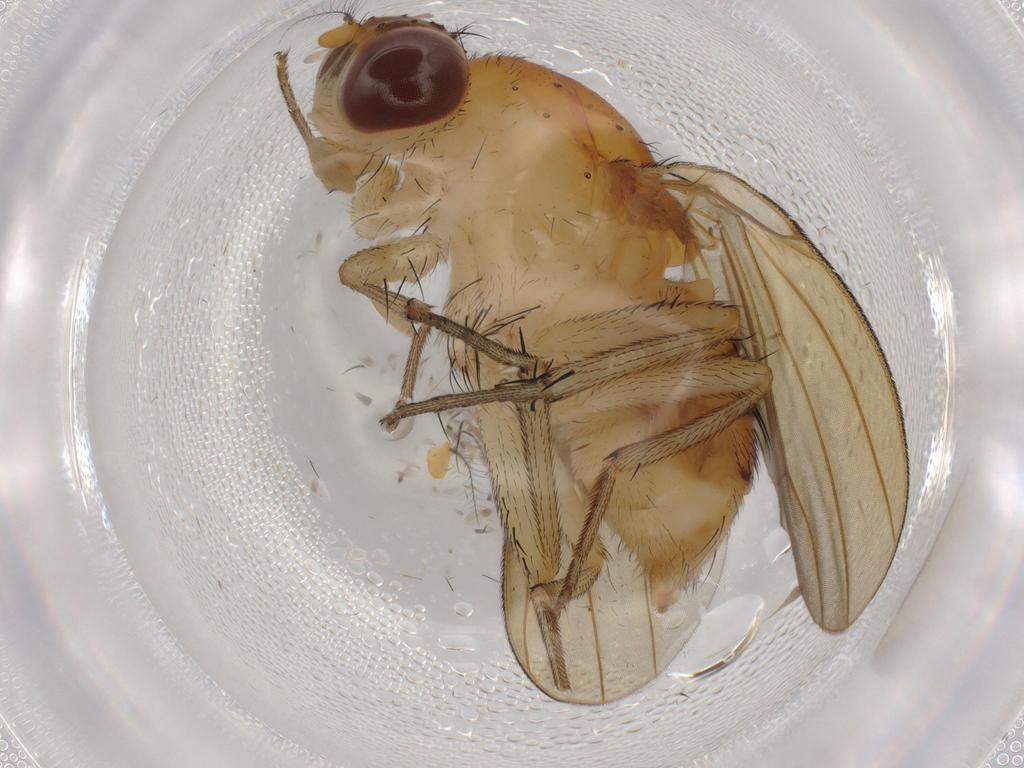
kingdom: Animalia
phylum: Arthropoda
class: Insecta
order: Diptera
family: Mycetophilidae
